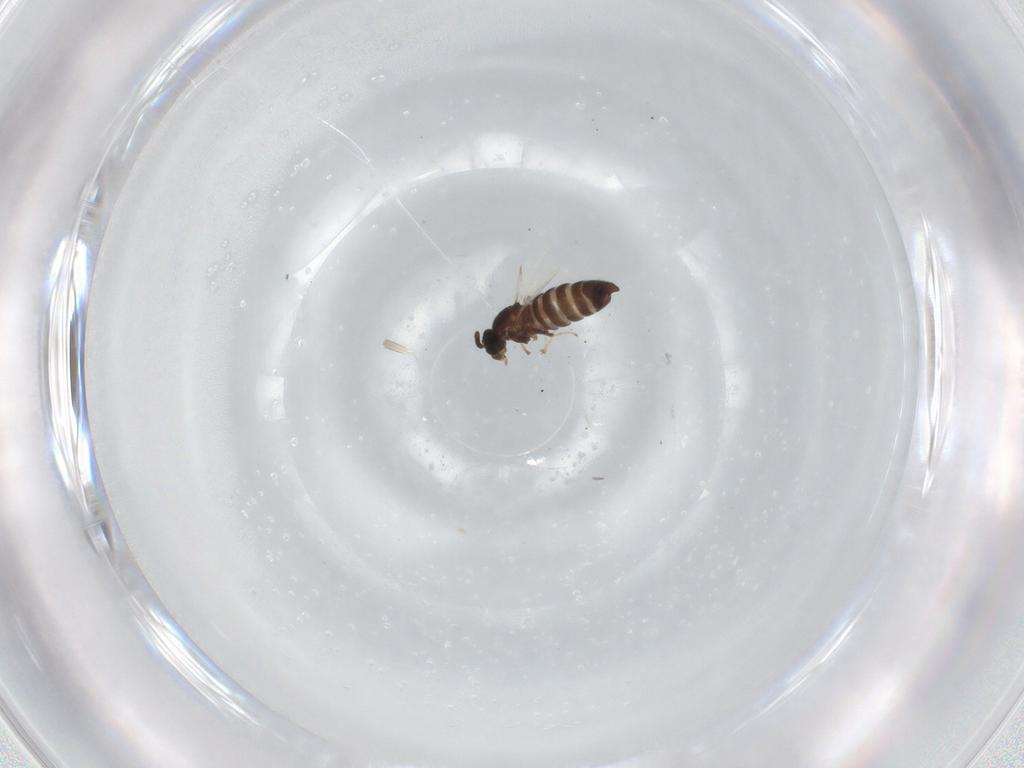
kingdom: Animalia
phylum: Arthropoda
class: Insecta
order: Diptera
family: Scatopsidae
